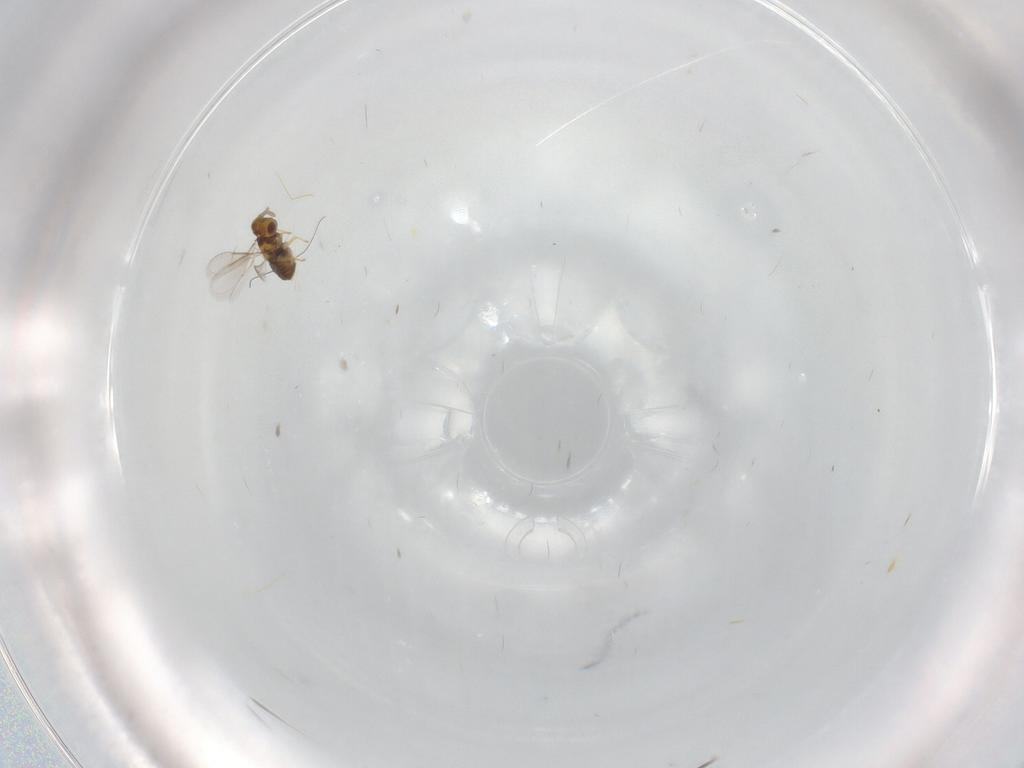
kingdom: Animalia
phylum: Arthropoda
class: Insecta
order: Hymenoptera
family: Aphelinidae
